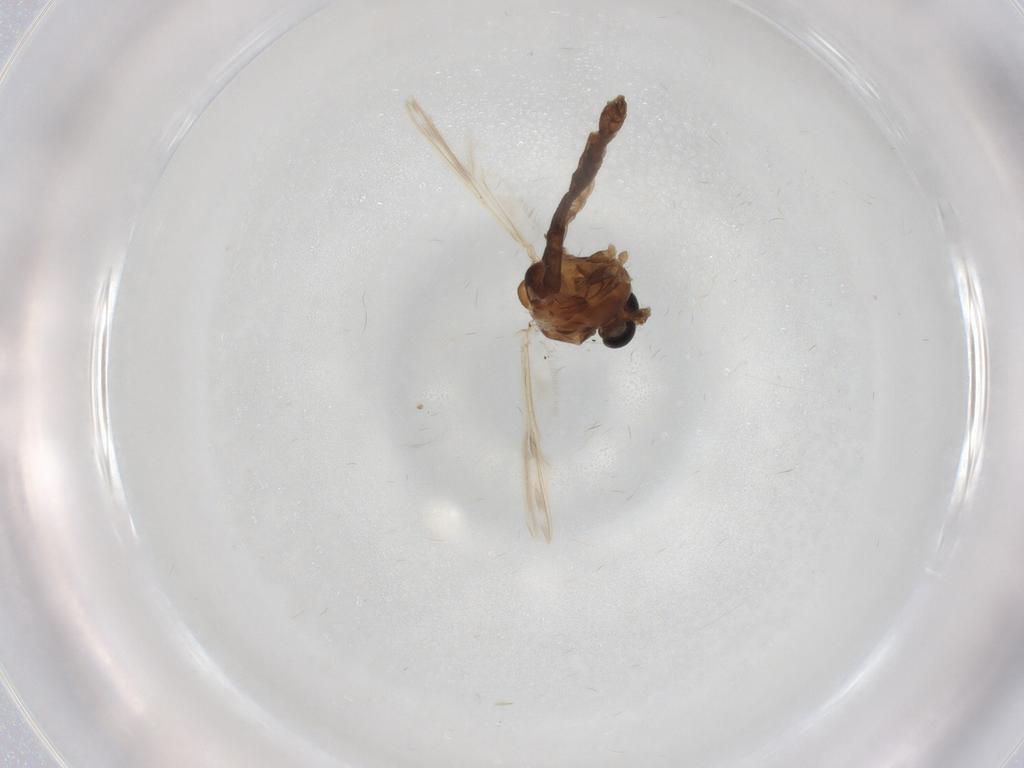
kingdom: Animalia
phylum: Arthropoda
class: Insecta
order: Diptera
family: Chironomidae
